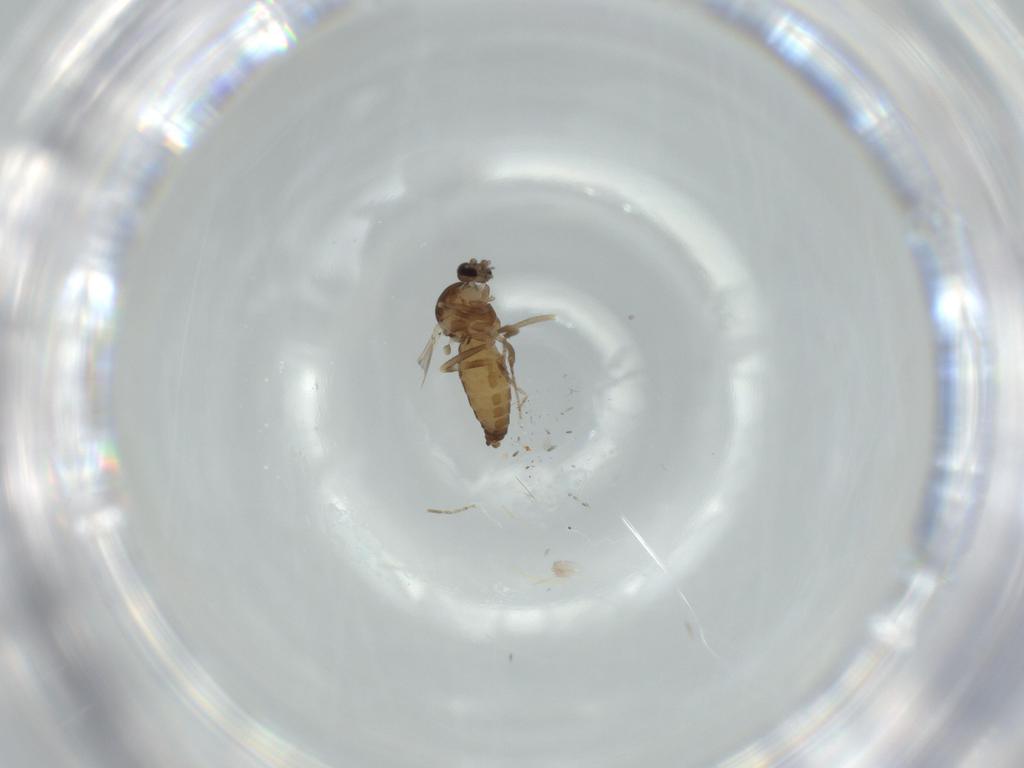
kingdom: Animalia
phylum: Arthropoda
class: Insecta
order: Diptera
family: Ceratopogonidae
